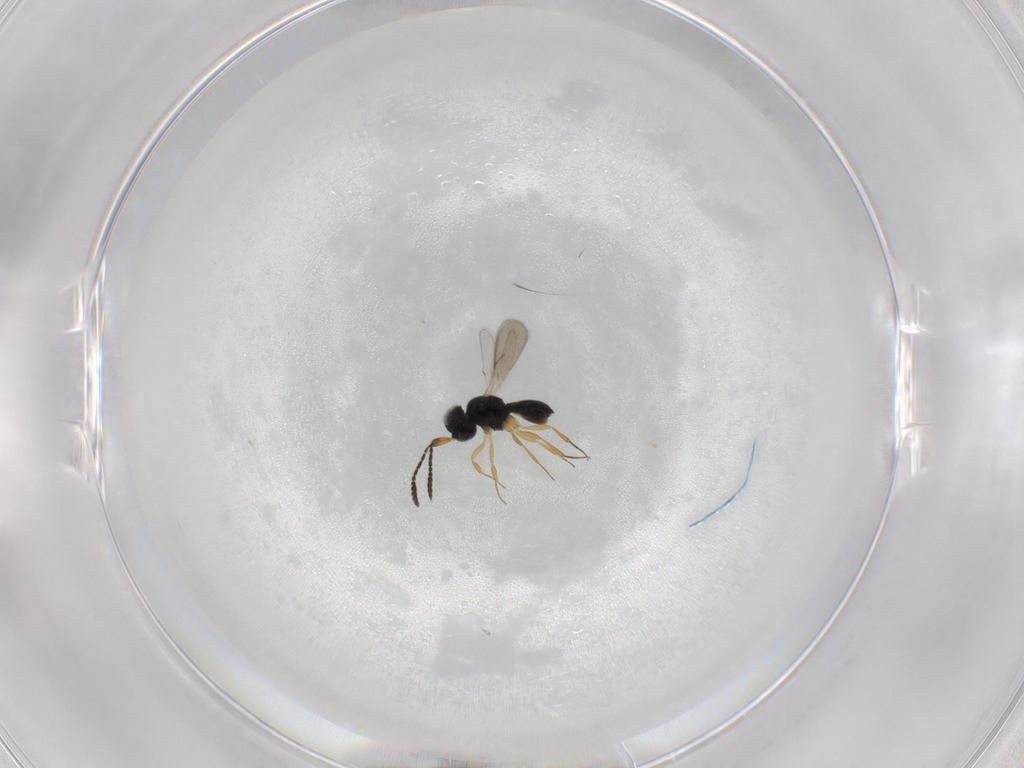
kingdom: Animalia
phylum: Arthropoda
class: Insecta
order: Hymenoptera
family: Scelionidae
